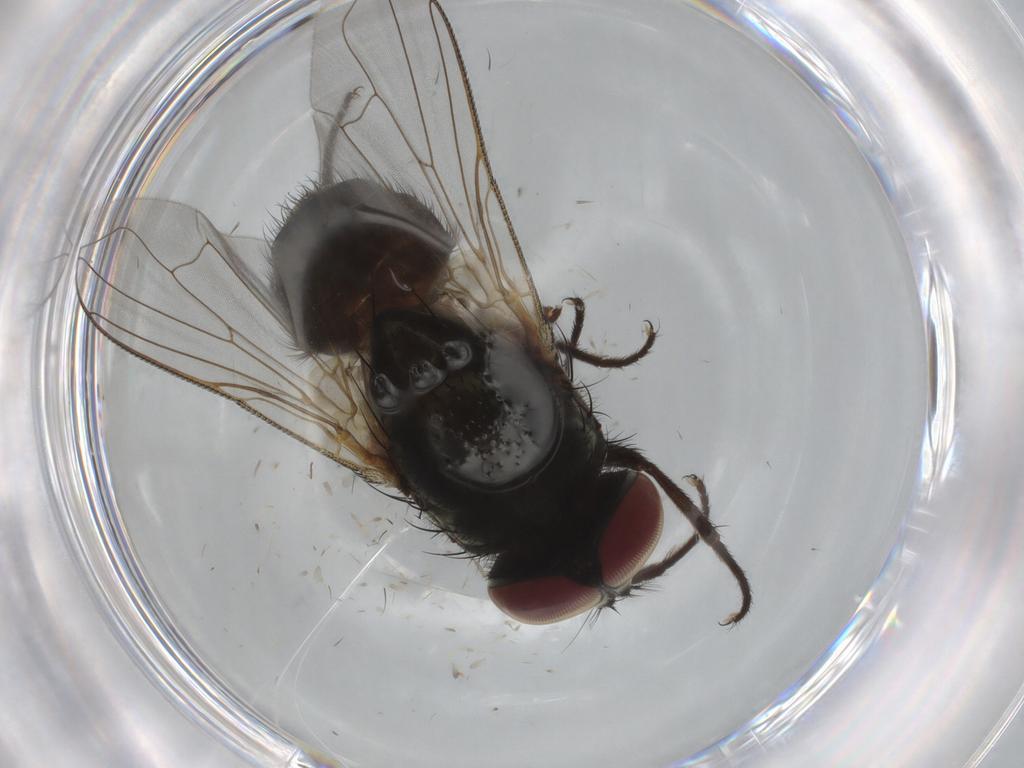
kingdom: Animalia
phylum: Arthropoda
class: Insecta
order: Diptera
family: Muscidae
